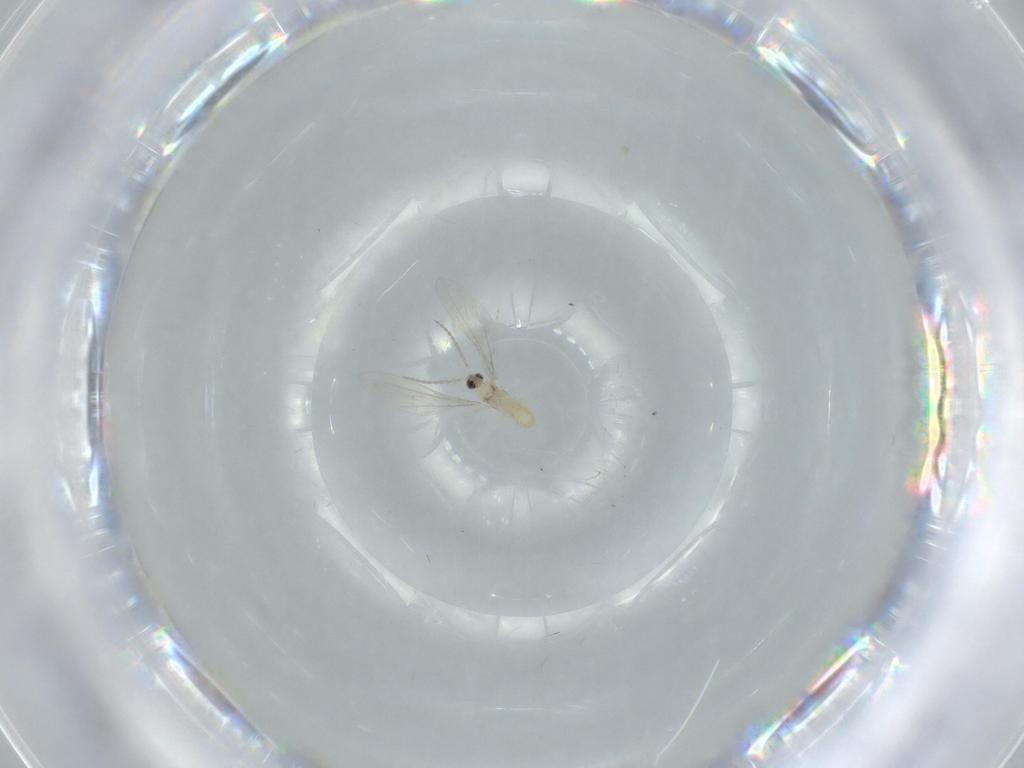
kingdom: Animalia
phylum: Arthropoda
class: Insecta
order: Diptera
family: Cecidomyiidae
